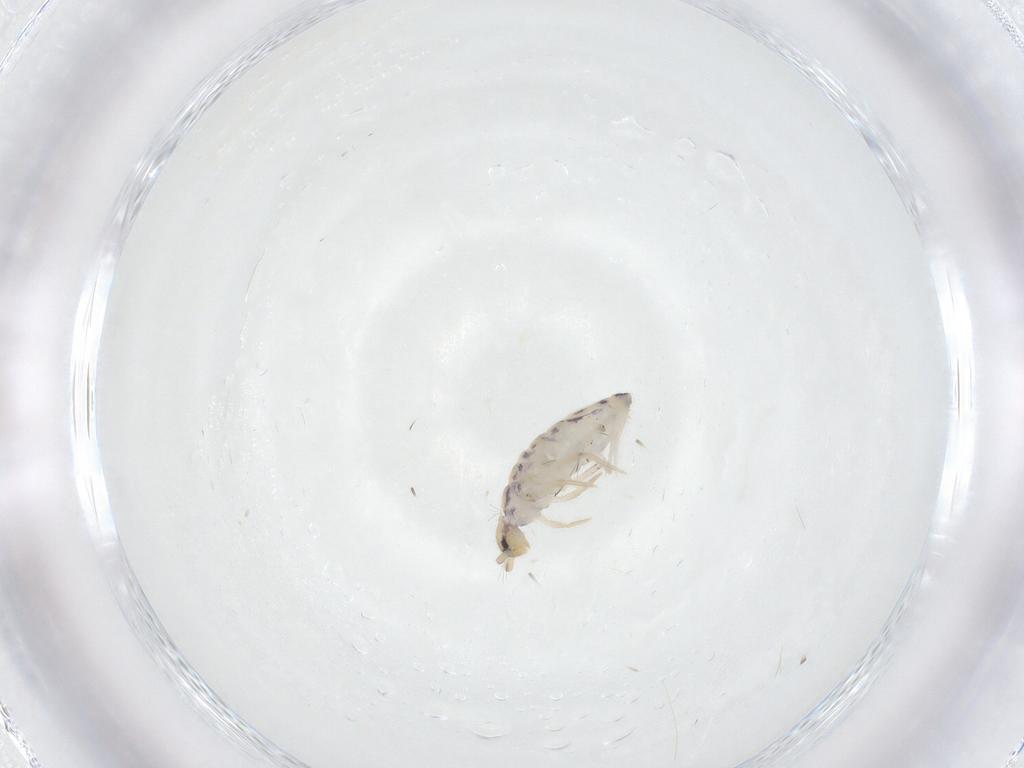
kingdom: Animalia
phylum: Arthropoda
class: Collembola
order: Entomobryomorpha
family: Entomobryidae
